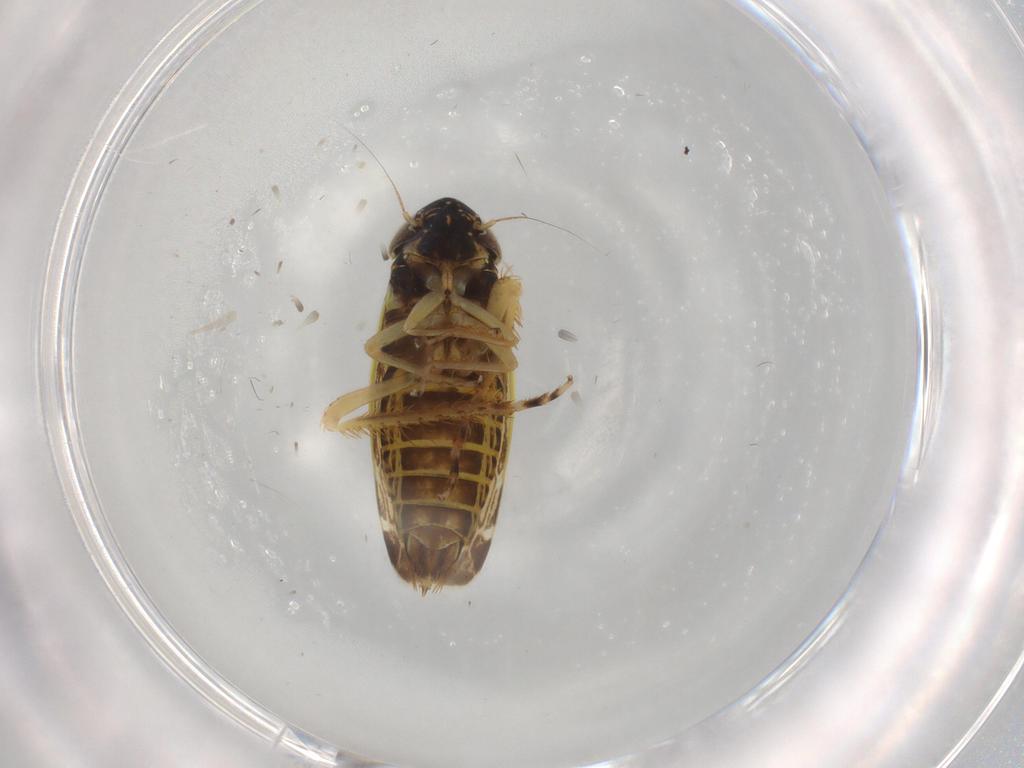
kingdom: Animalia
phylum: Arthropoda
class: Insecta
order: Hemiptera
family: Cicadellidae
